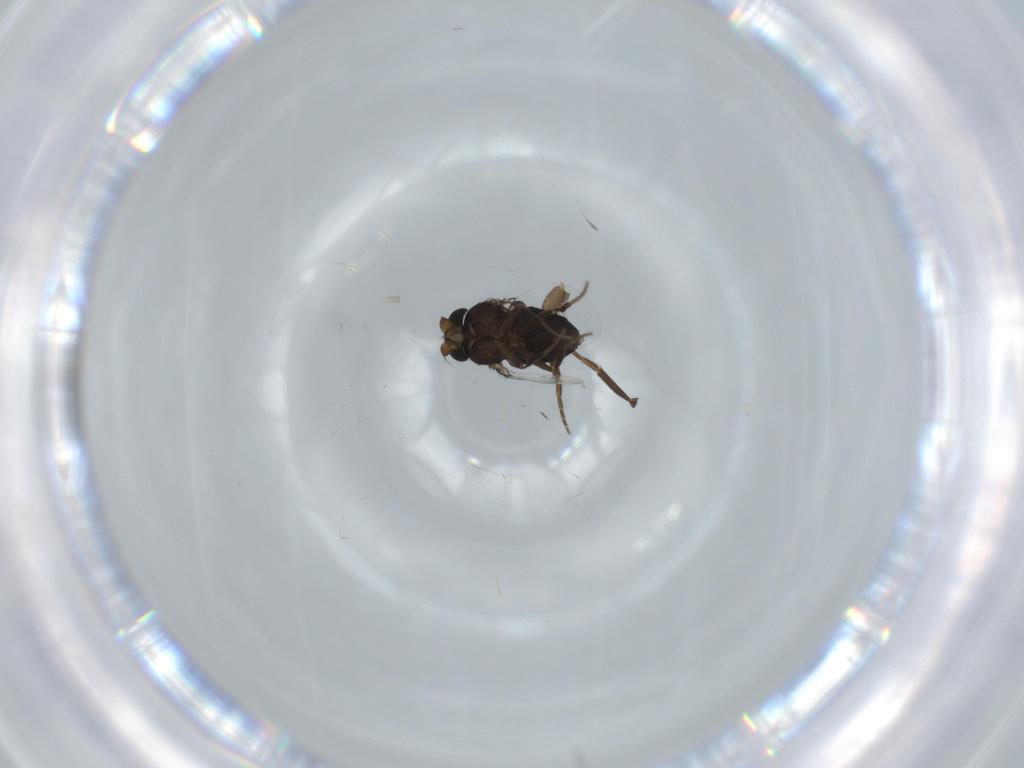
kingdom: Animalia
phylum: Arthropoda
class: Insecta
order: Diptera
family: Phoridae
